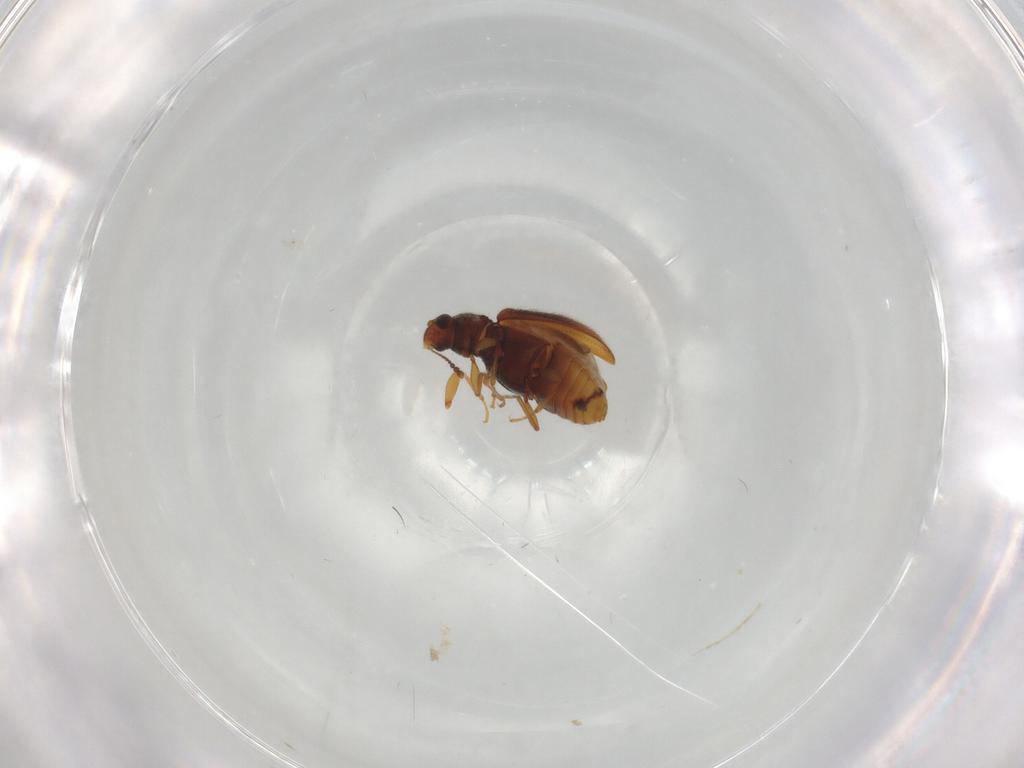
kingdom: Animalia
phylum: Arthropoda
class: Insecta
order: Coleoptera
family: Latridiidae
